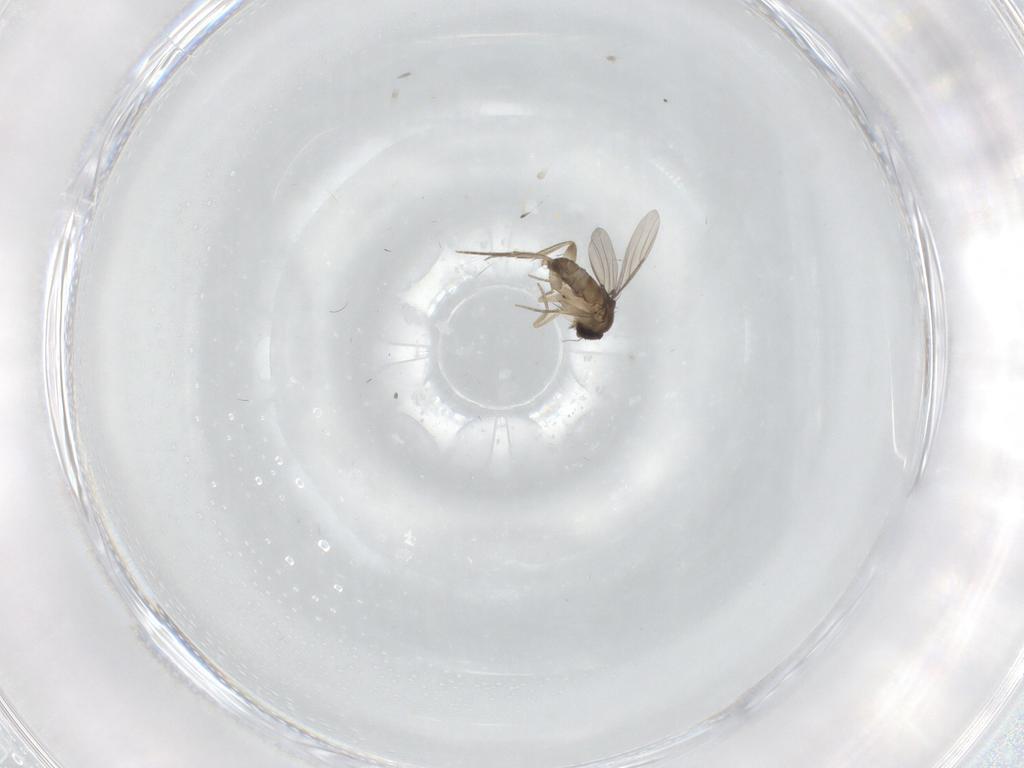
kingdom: Animalia
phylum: Arthropoda
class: Insecta
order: Diptera
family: Phoridae
